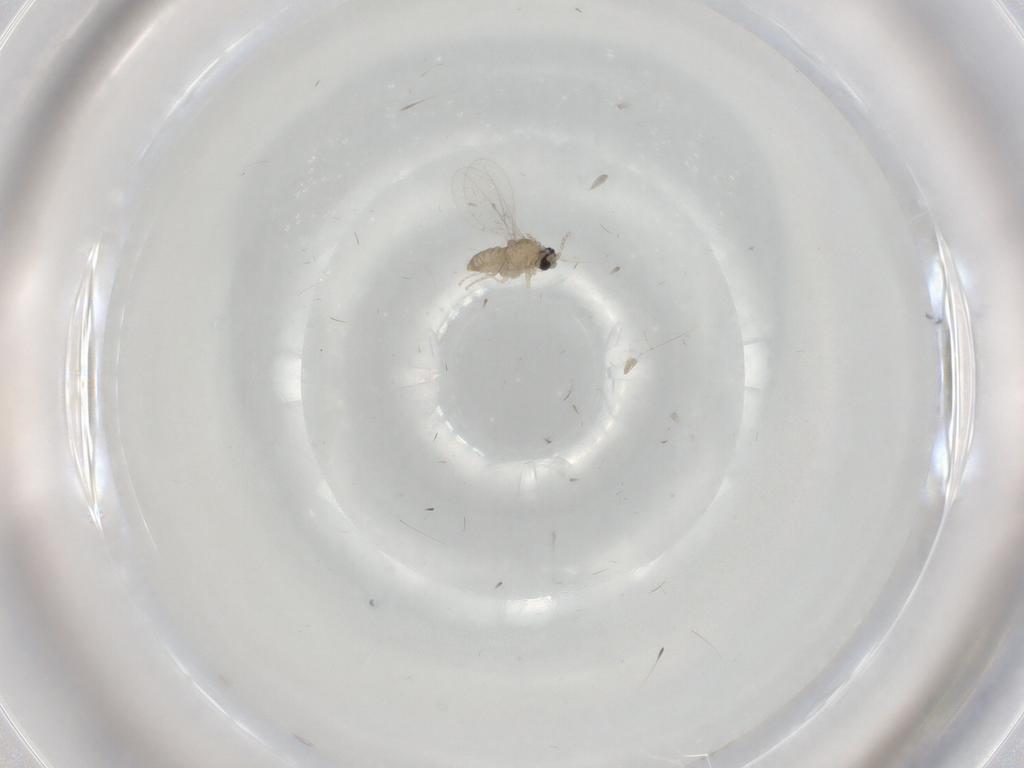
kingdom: Animalia
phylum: Arthropoda
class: Insecta
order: Diptera
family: Cecidomyiidae
